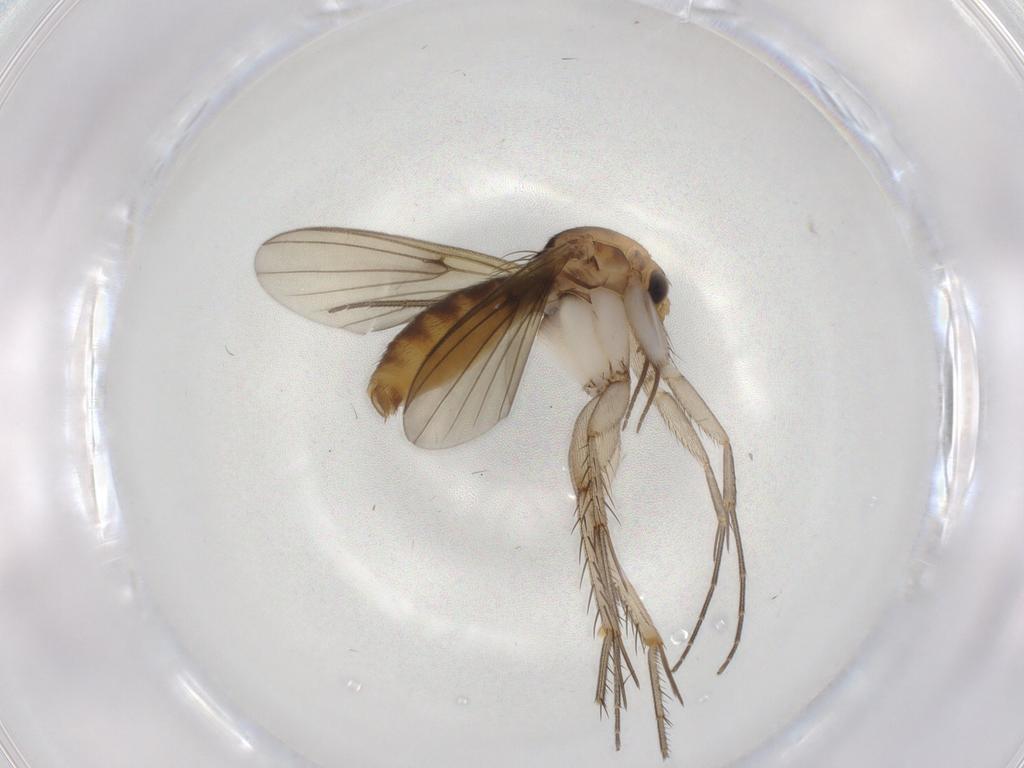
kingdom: Animalia
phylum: Arthropoda
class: Insecta
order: Diptera
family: Mycetophilidae
